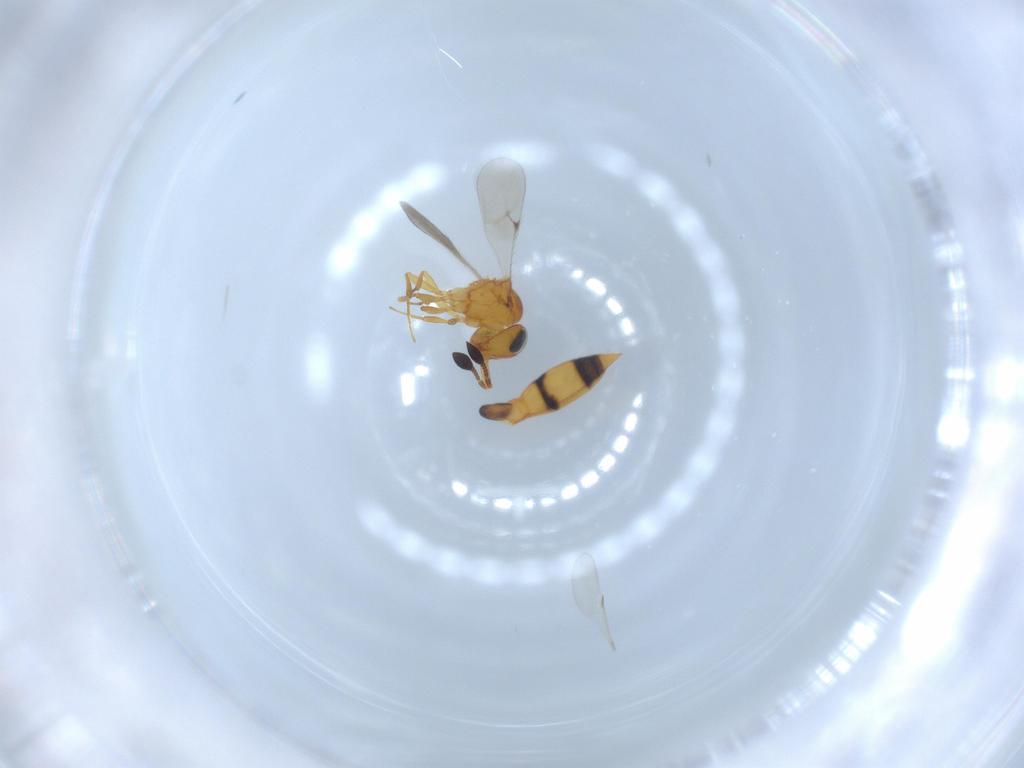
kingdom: Animalia
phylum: Arthropoda
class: Insecta
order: Hymenoptera
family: Scelionidae
